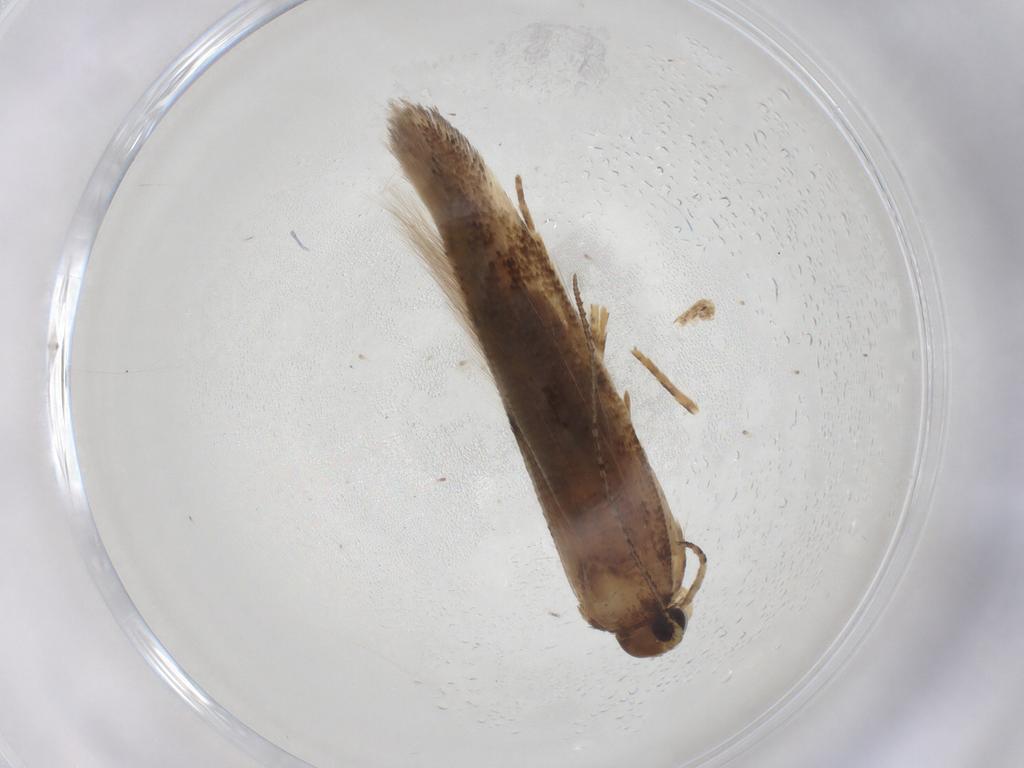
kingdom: Animalia
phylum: Arthropoda
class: Insecta
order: Lepidoptera
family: Gelechiidae
